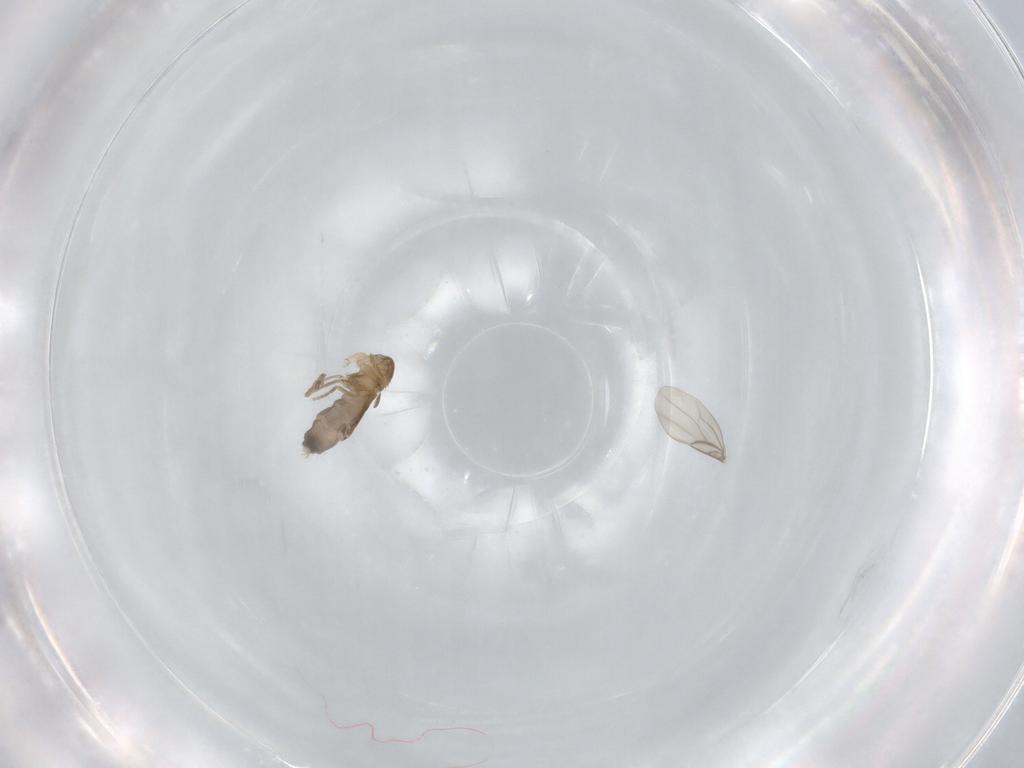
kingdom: Animalia
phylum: Arthropoda
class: Insecta
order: Diptera
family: Phoridae
